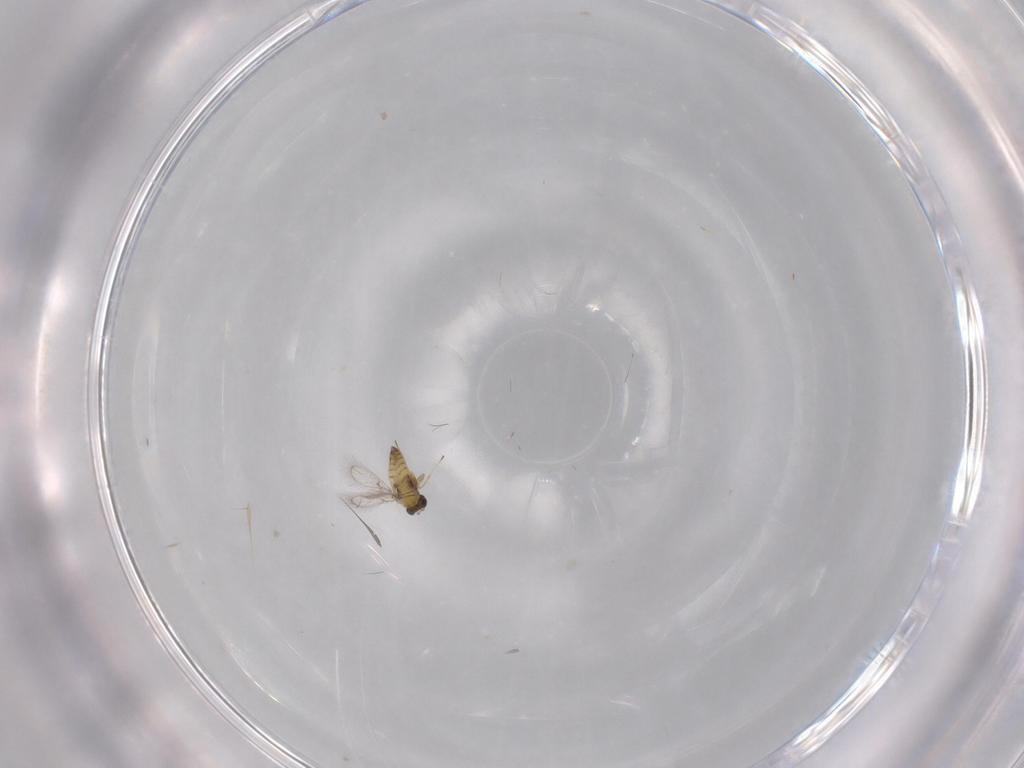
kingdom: Animalia
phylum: Arthropoda
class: Insecta
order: Hymenoptera
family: Trichogrammatidae
